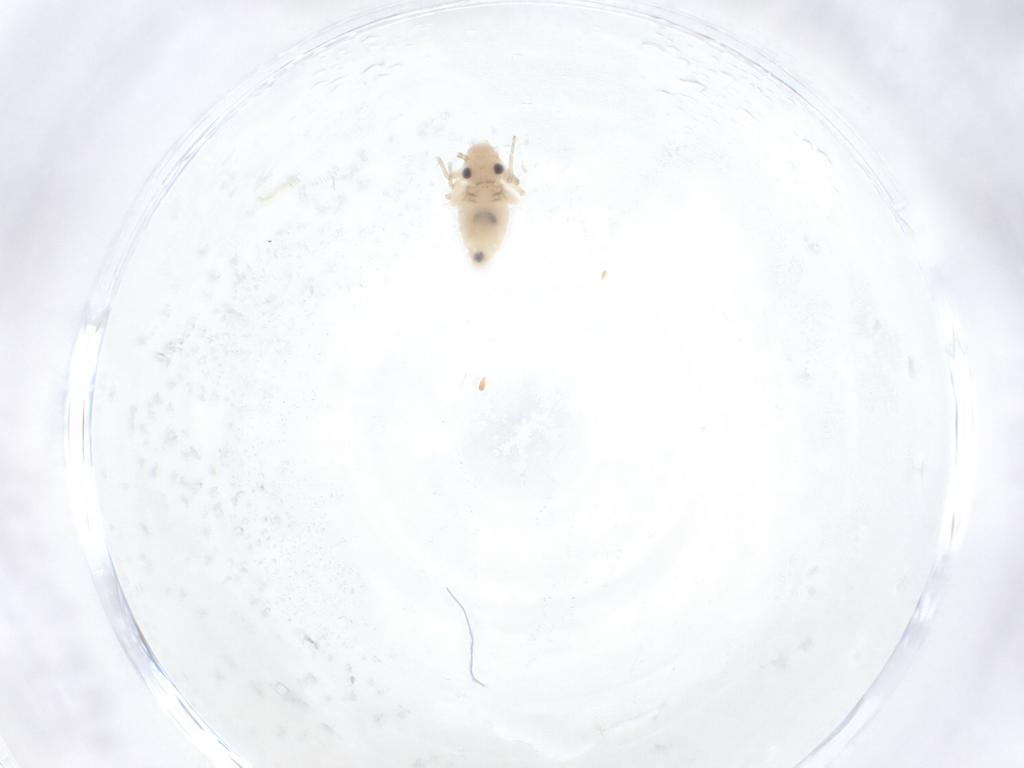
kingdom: Animalia
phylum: Arthropoda
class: Insecta
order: Psocodea
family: Caeciliusidae
